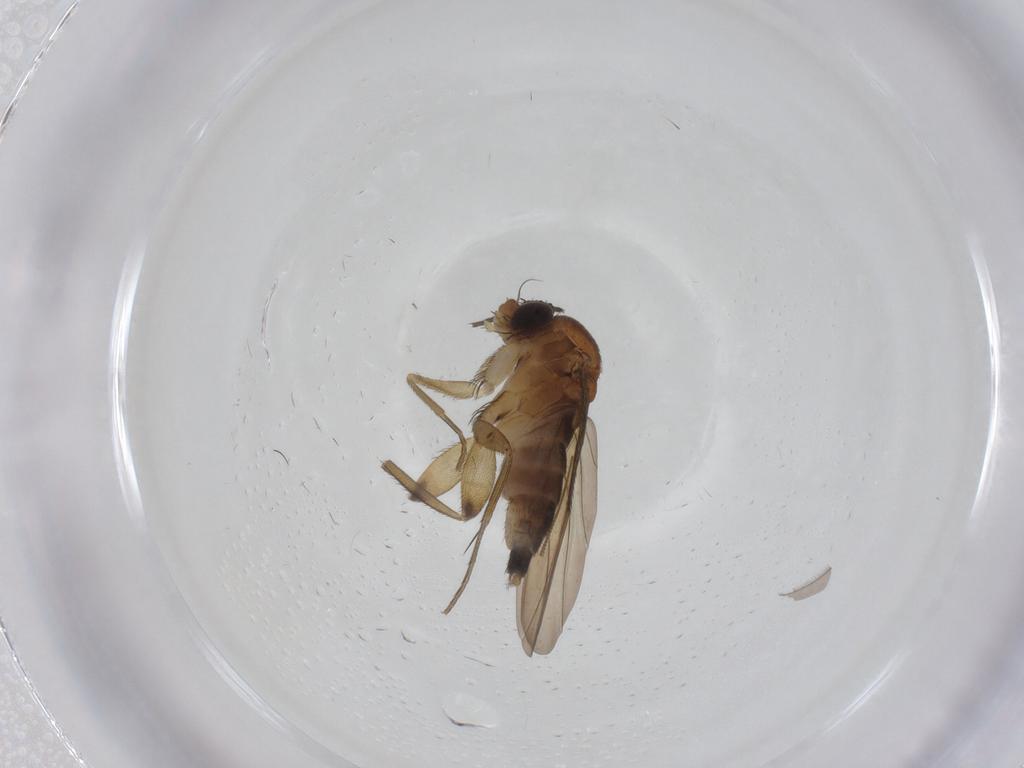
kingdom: Animalia
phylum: Arthropoda
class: Insecta
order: Diptera
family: Phoridae
